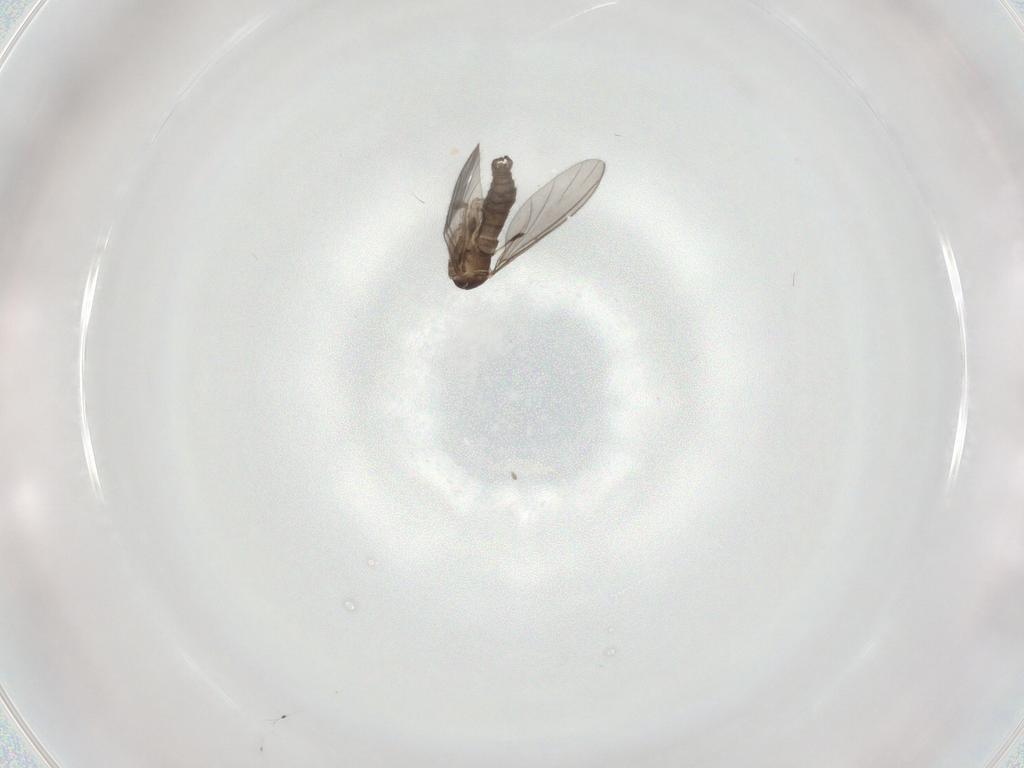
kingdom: Animalia
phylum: Arthropoda
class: Insecta
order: Diptera
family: Sciaridae
